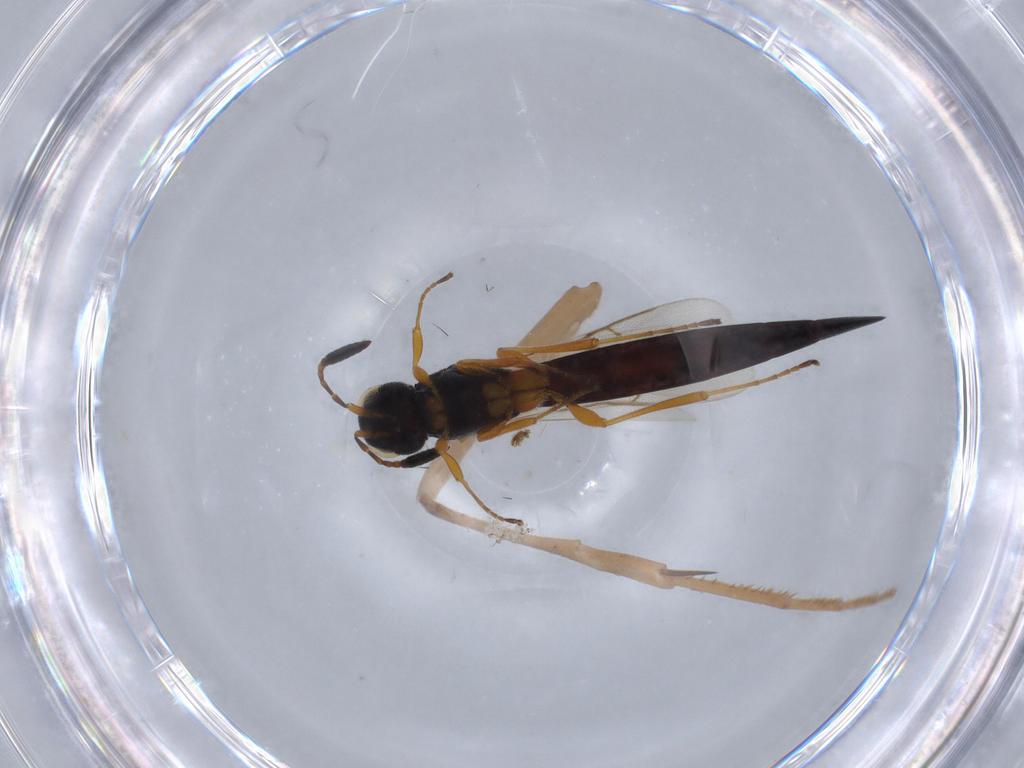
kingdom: Animalia
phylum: Arthropoda
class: Insecta
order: Hymenoptera
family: Scelionidae
